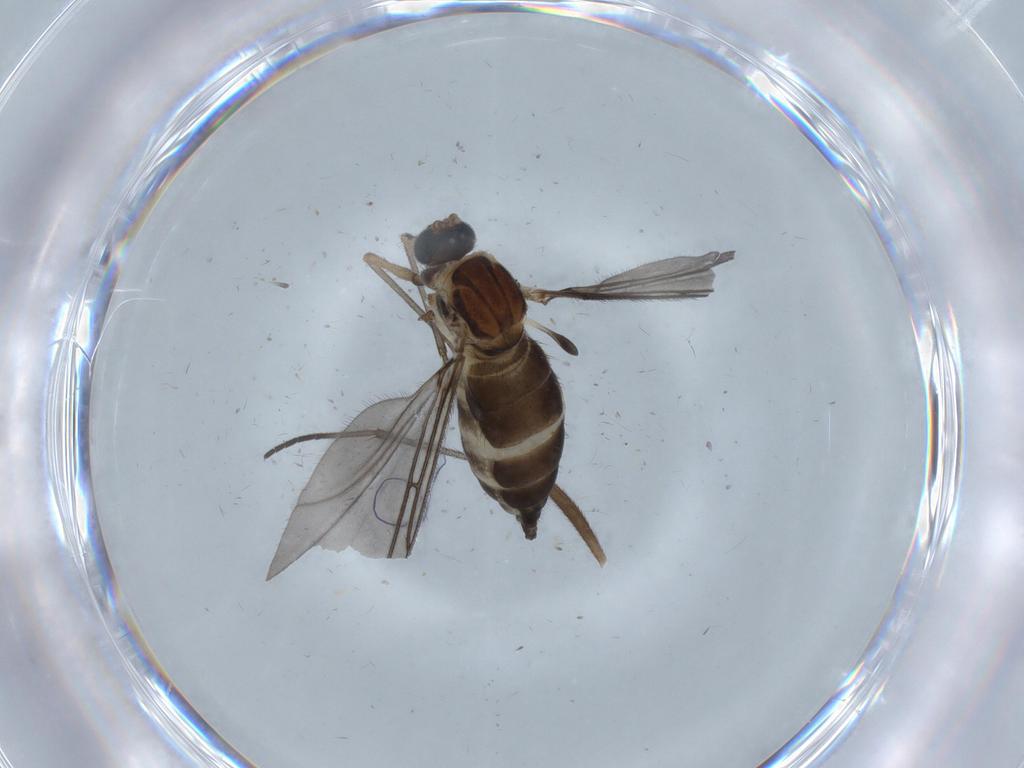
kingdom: Animalia
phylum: Arthropoda
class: Insecta
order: Diptera
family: Sciaridae
